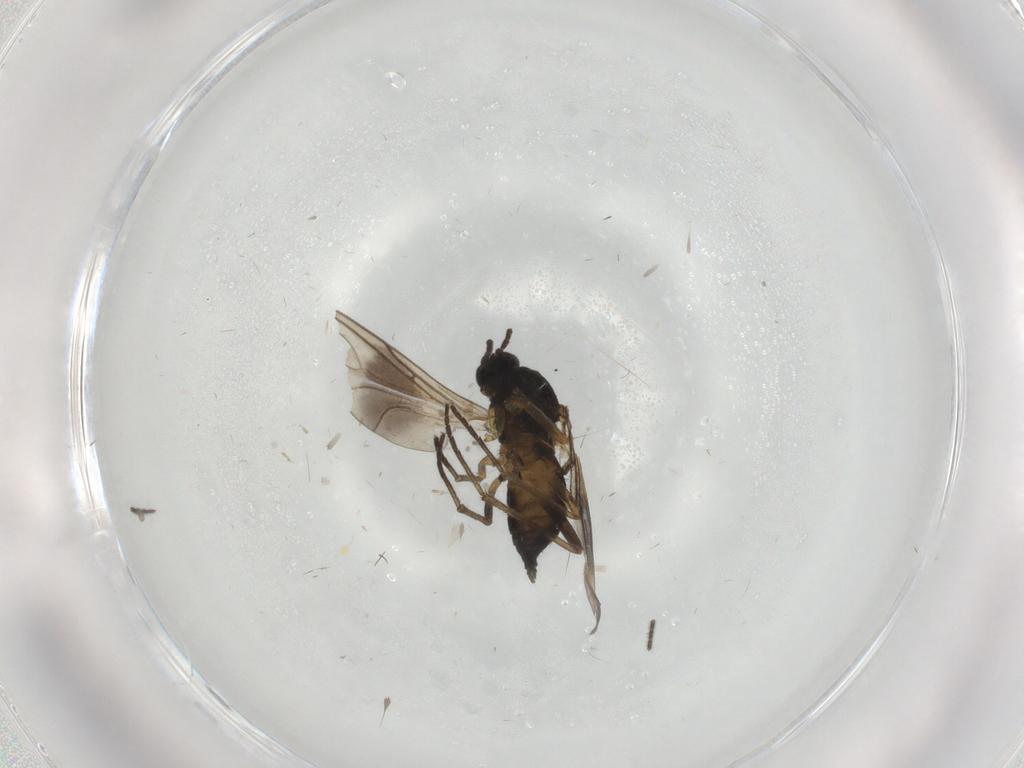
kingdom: Animalia
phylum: Arthropoda
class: Insecta
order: Diptera
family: Sciaridae
